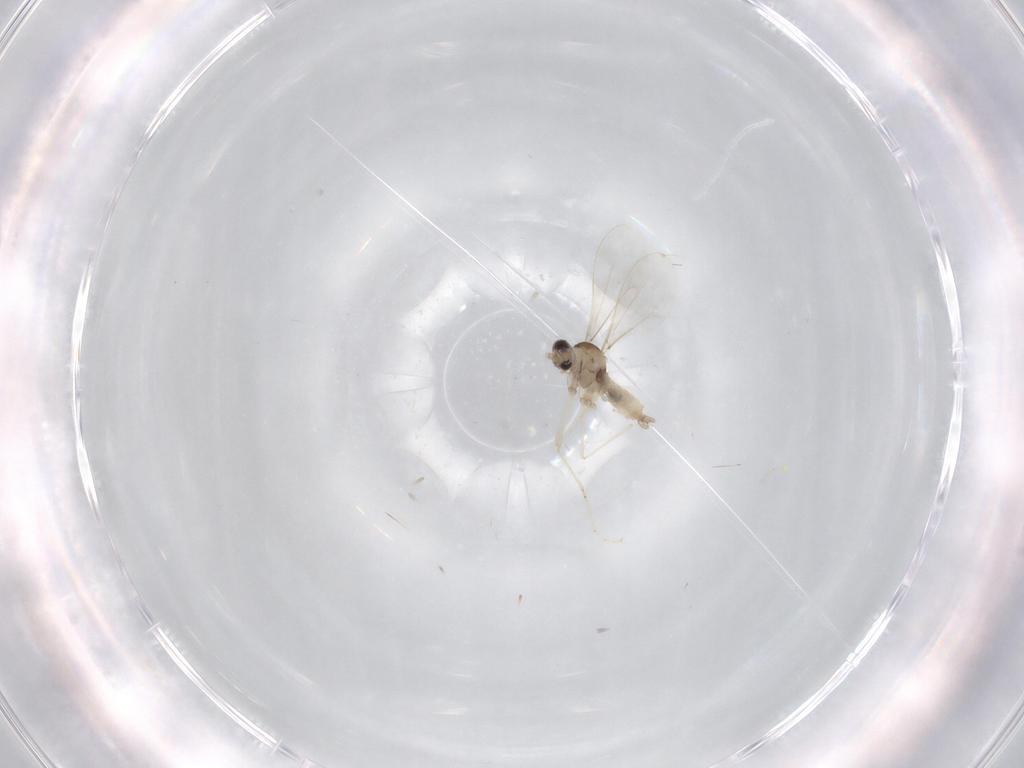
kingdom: Animalia
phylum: Arthropoda
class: Insecta
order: Diptera
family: Cecidomyiidae
